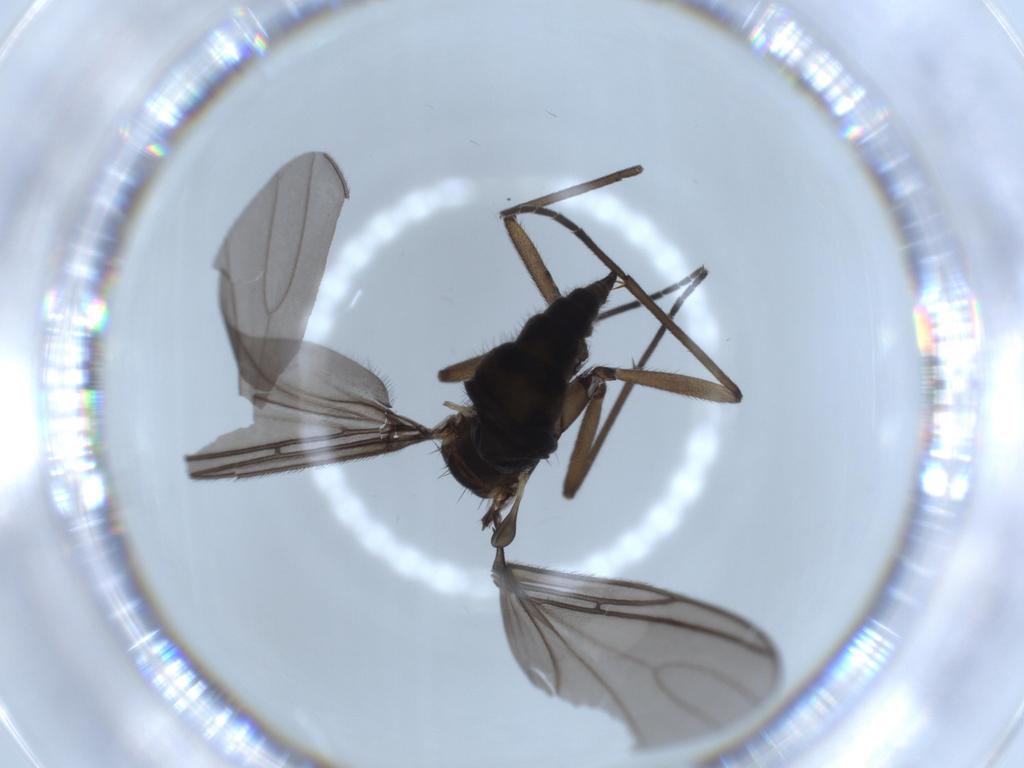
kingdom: Animalia
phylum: Arthropoda
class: Insecta
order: Diptera
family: Sciaridae
